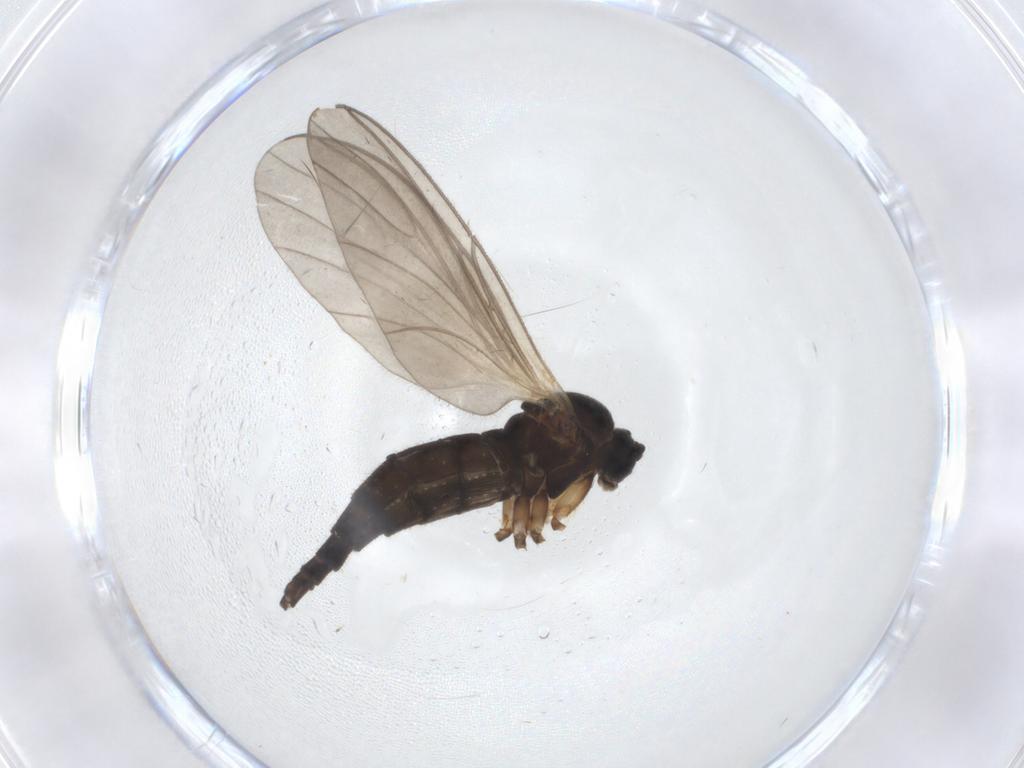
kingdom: Animalia
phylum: Arthropoda
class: Insecta
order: Diptera
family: Sciaridae
